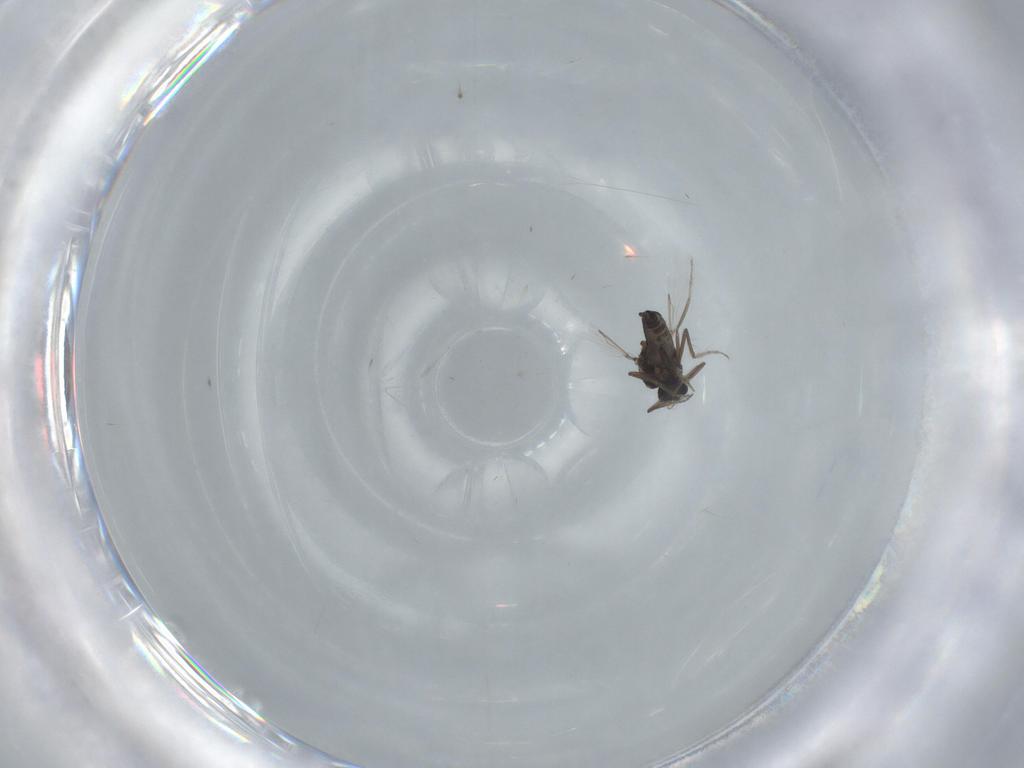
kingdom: Animalia
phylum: Arthropoda
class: Insecta
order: Diptera
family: Ceratopogonidae
